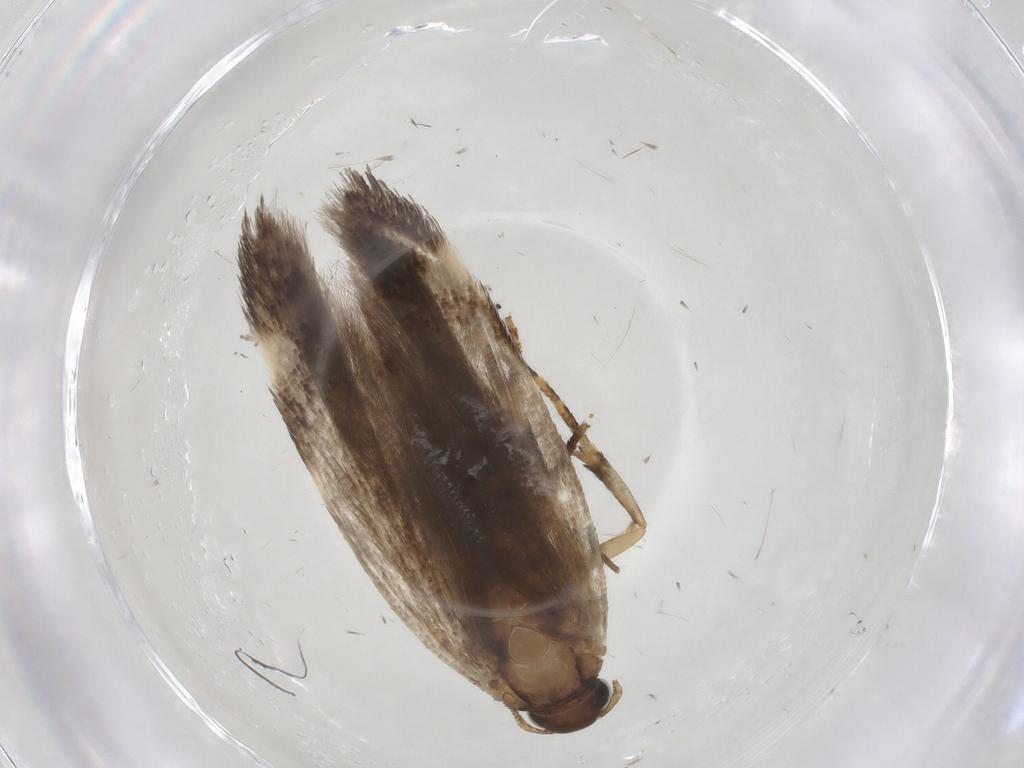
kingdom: Animalia
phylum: Arthropoda
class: Insecta
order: Lepidoptera
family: Gelechiidae
